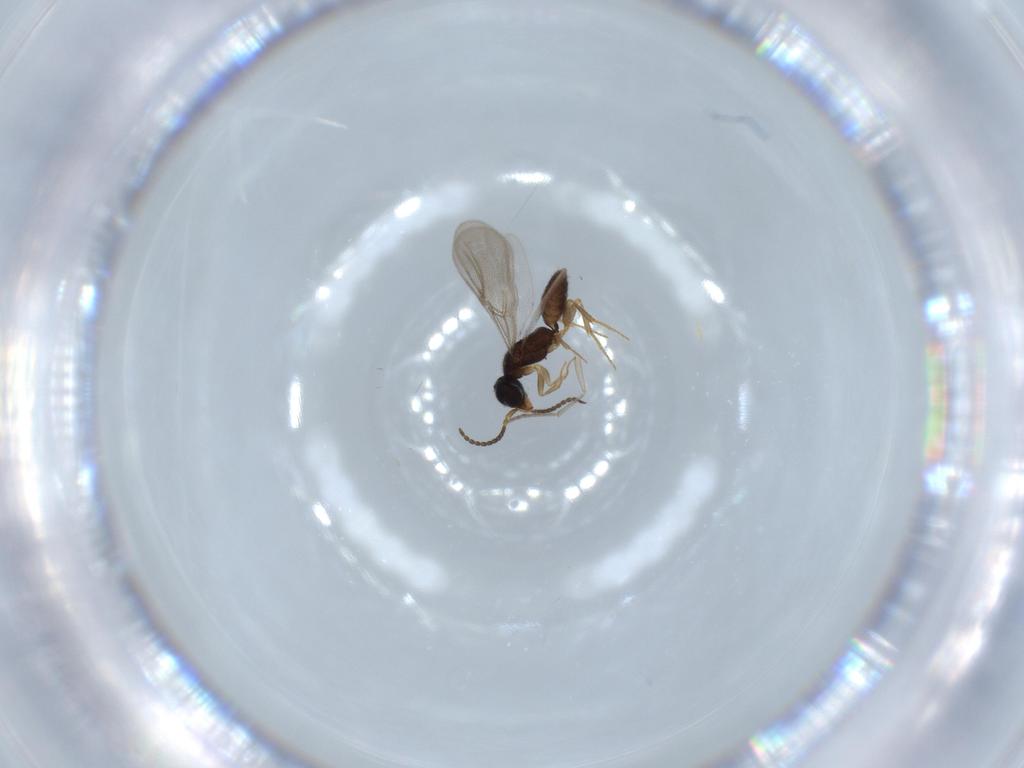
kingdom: Animalia
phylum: Arthropoda
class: Insecta
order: Hymenoptera
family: Bethylidae
